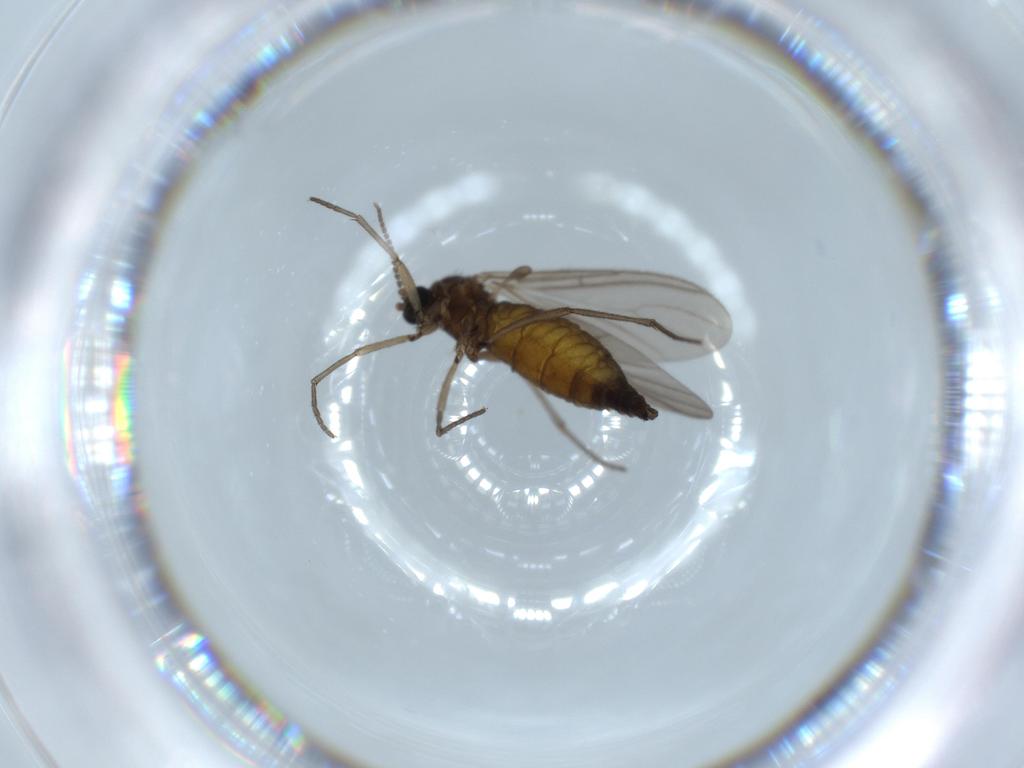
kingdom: Animalia
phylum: Arthropoda
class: Insecta
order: Diptera
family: Sciaridae
